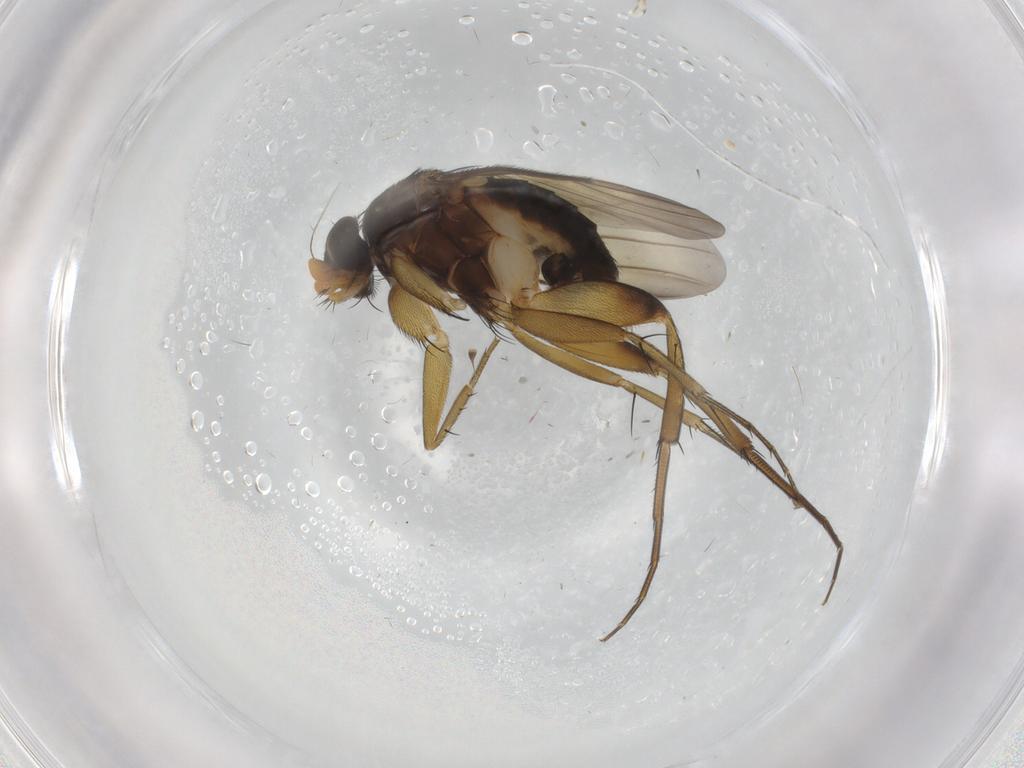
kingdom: Animalia
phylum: Arthropoda
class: Insecta
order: Diptera
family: Phoridae
